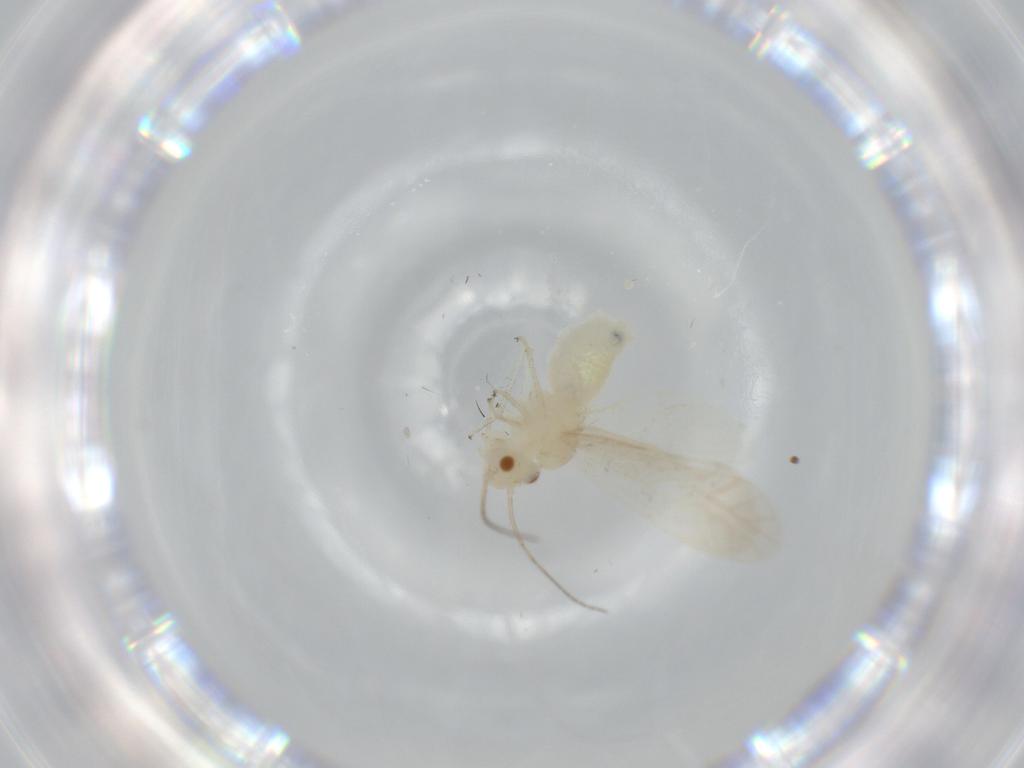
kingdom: Animalia
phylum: Arthropoda
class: Insecta
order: Psocodea
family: Caeciliusidae
